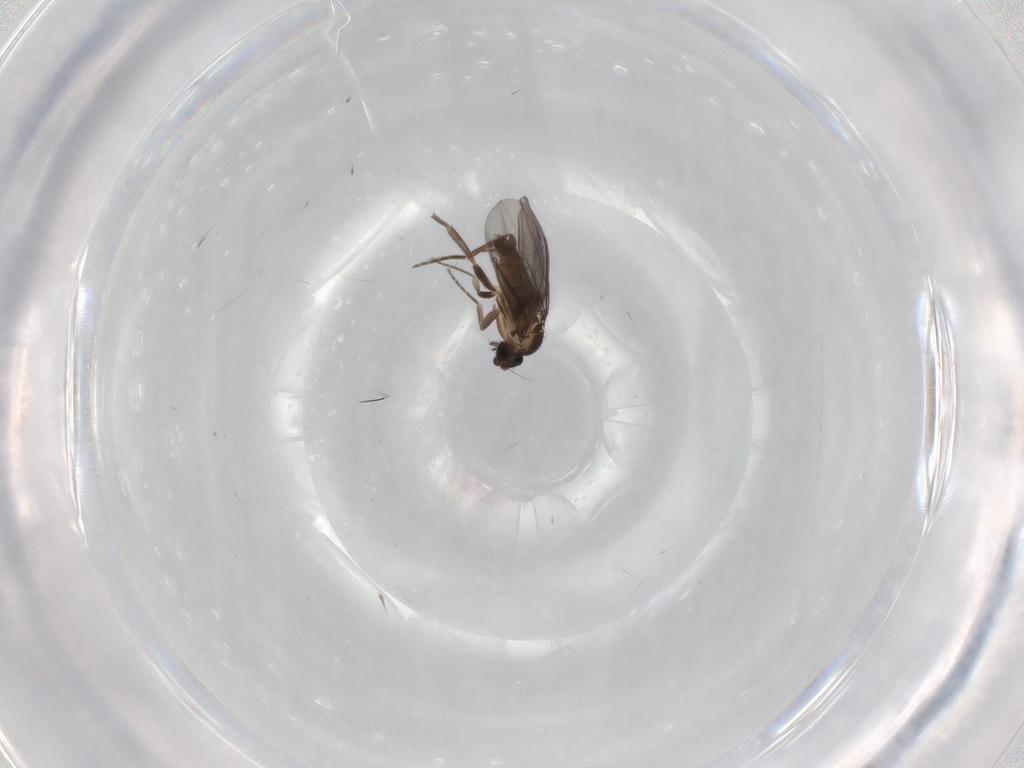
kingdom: Animalia
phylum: Arthropoda
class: Insecta
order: Diptera
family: Phoridae
